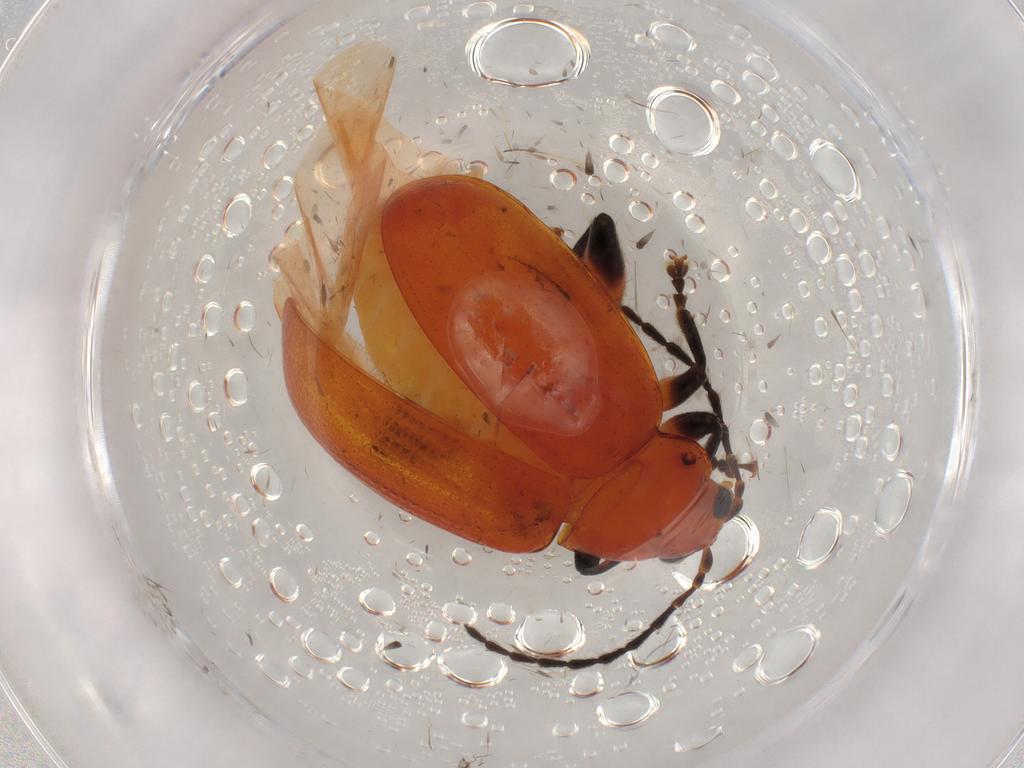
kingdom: Animalia
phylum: Arthropoda
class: Insecta
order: Coleoptera
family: Chrysomelidae
